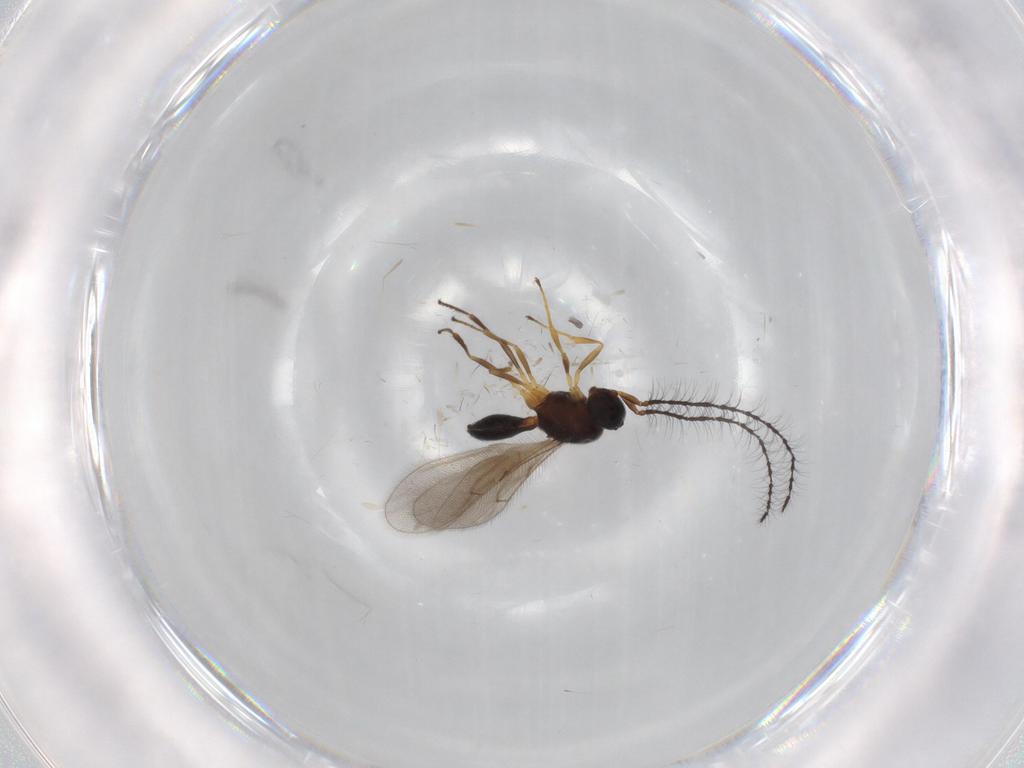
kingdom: Animalia
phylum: Arthropoda
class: Insecta
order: Hymenoptera
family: Scelionidae
